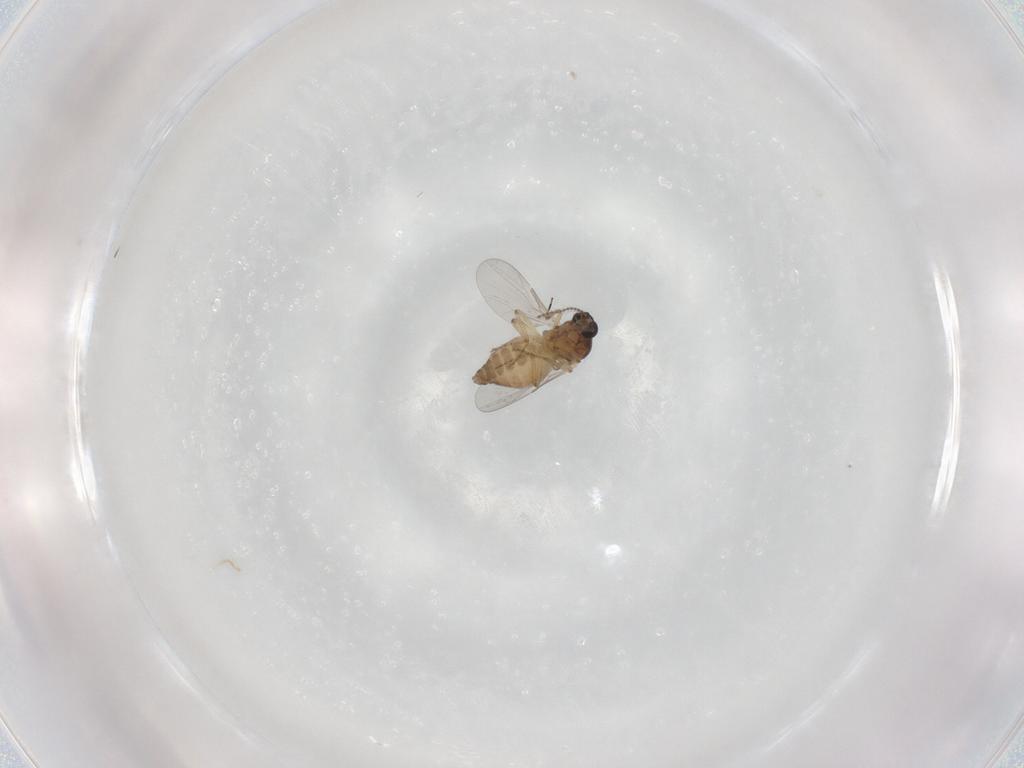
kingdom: Animalia
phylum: Arthropoda
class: Insecta
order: Diptera
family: Ceratopogonidae
